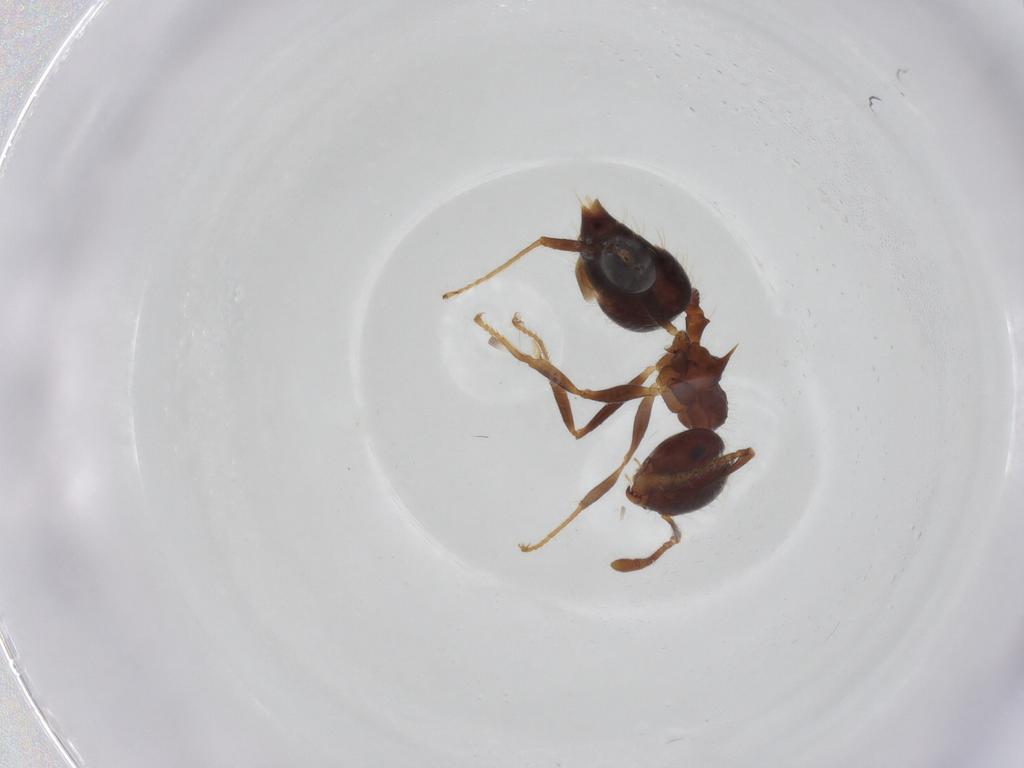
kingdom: Animalia
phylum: Arthropoda
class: Insecta
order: Hymenoptera
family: Formicidae
